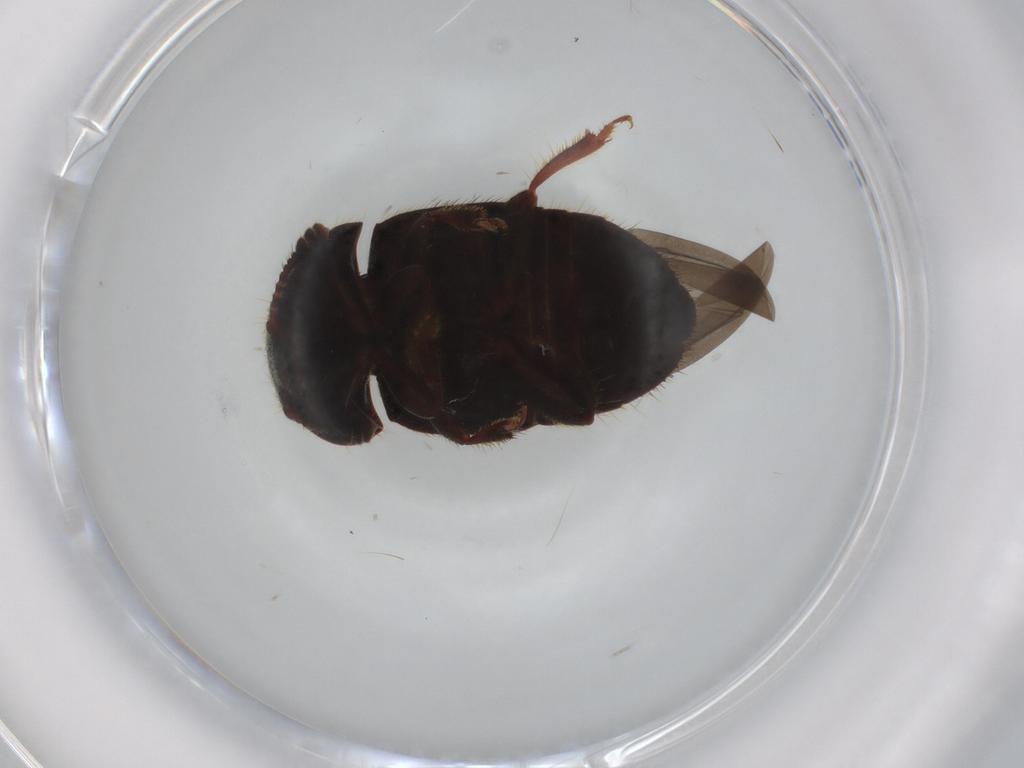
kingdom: Animalia
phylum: Arthropoda
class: Insecta
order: Coleoptera
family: Nitidulidae
